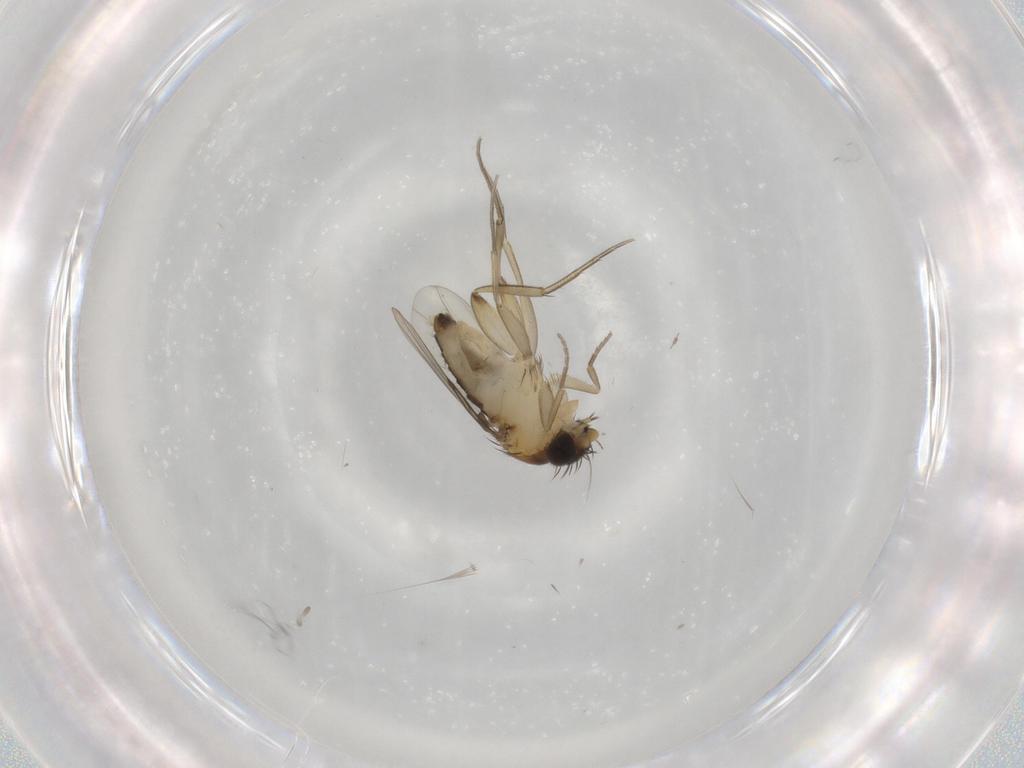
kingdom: Animalia
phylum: Arthropoda
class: Insecta
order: Diptera
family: Phoridae
